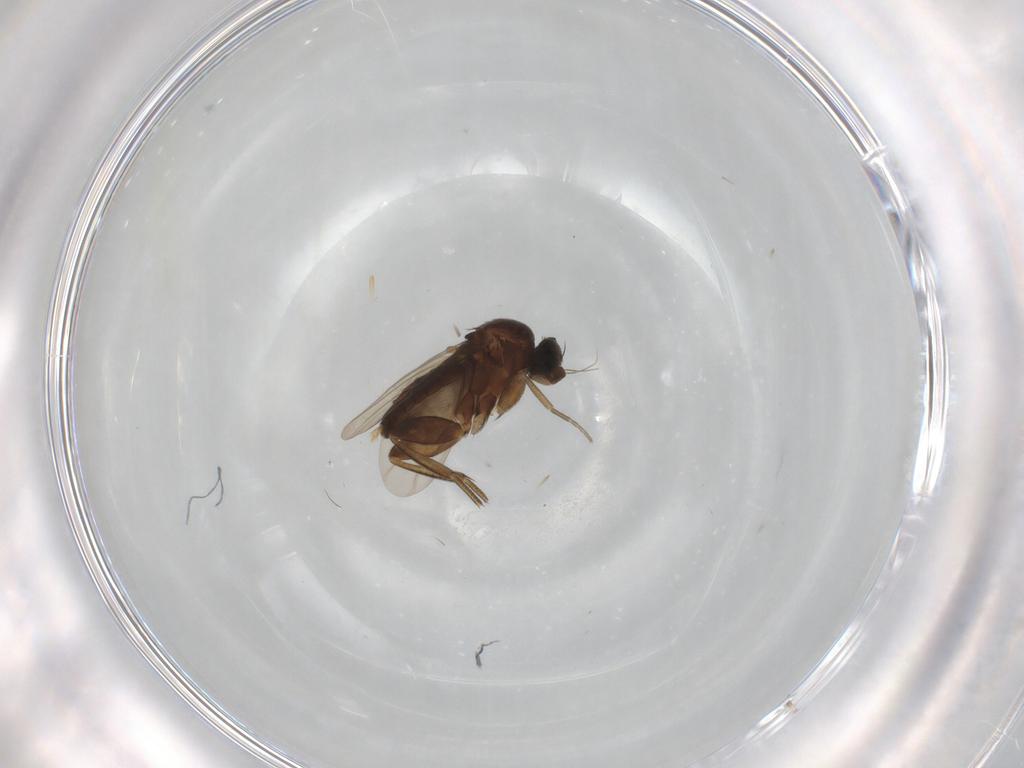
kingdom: Animalia
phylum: Arthropoda
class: Insecta
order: Diptera
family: Phoridae
